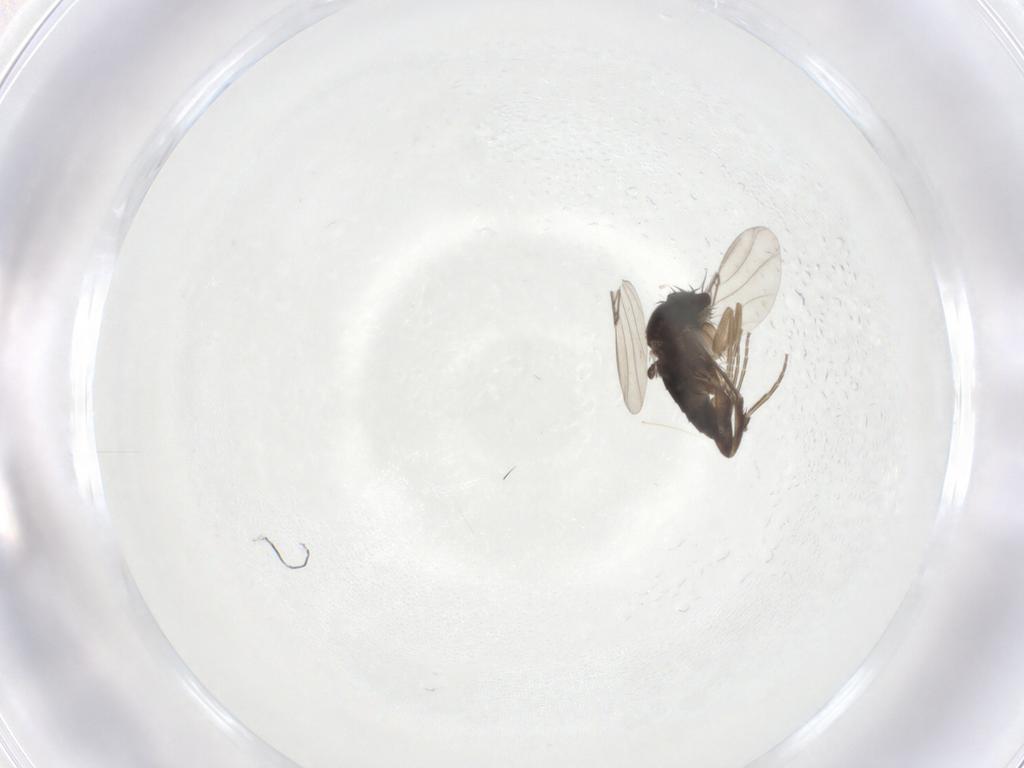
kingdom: Animalia
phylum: Arthropoda
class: Insecta
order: Diptera
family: Phoridae
